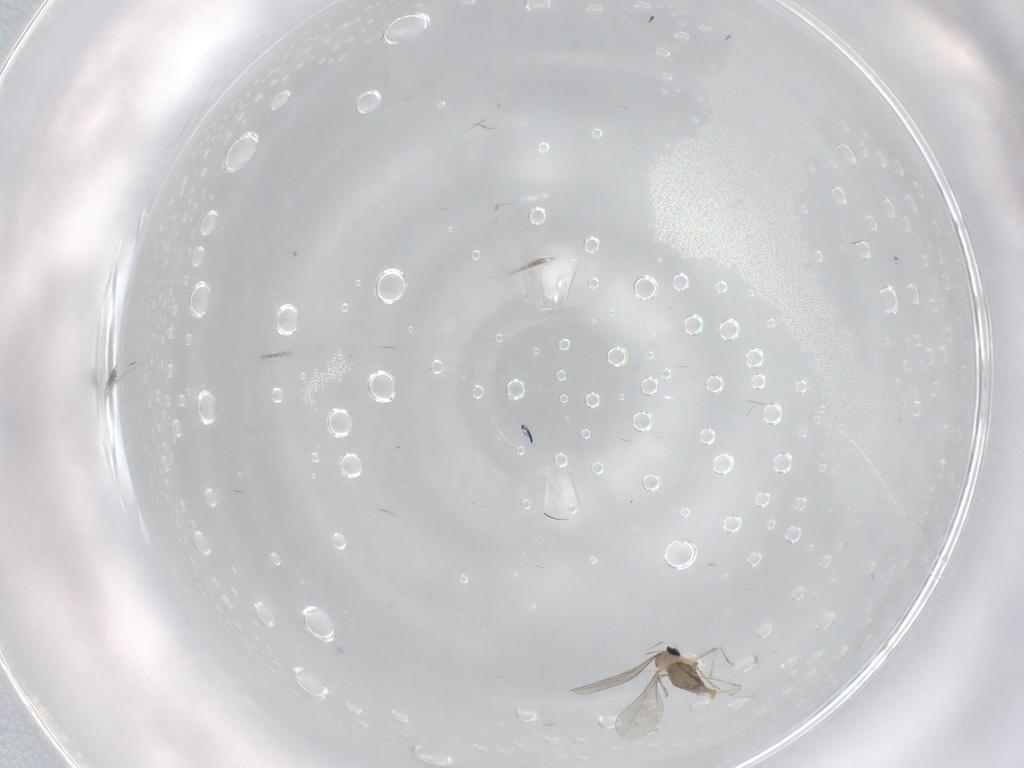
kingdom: Animalia
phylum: Arthropoda
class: Insecta
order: Diptera
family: Cecidomyiidae
